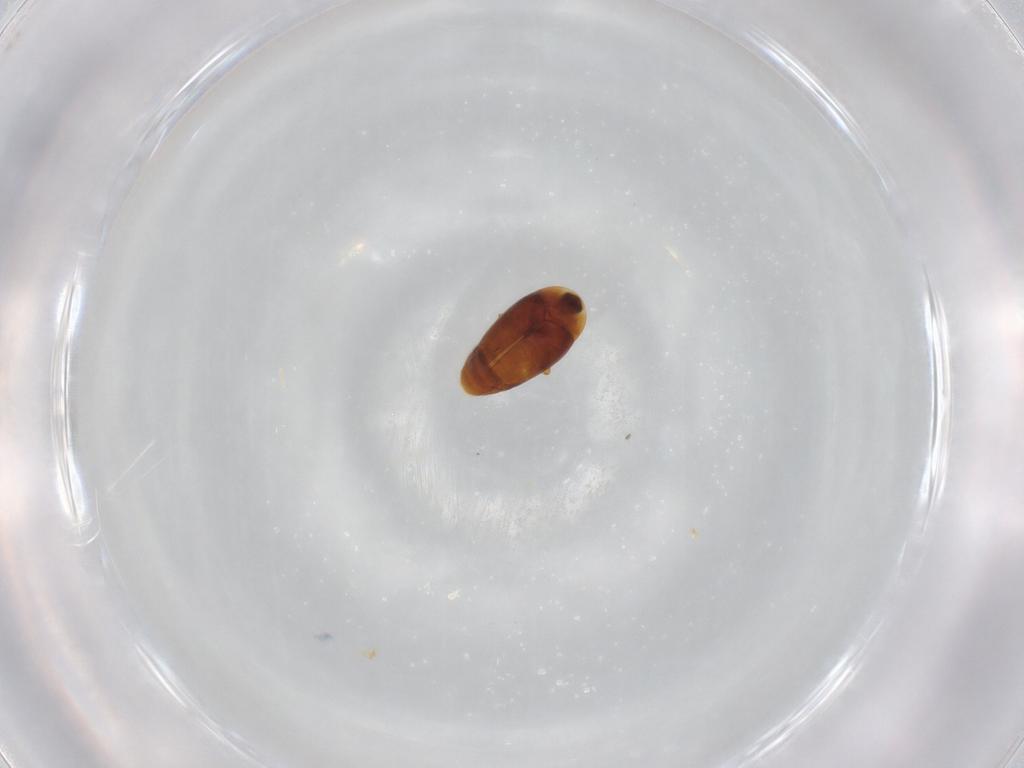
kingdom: Animalia
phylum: Arthropoda
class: Insecta
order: Coleoptera
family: Corylophidae
